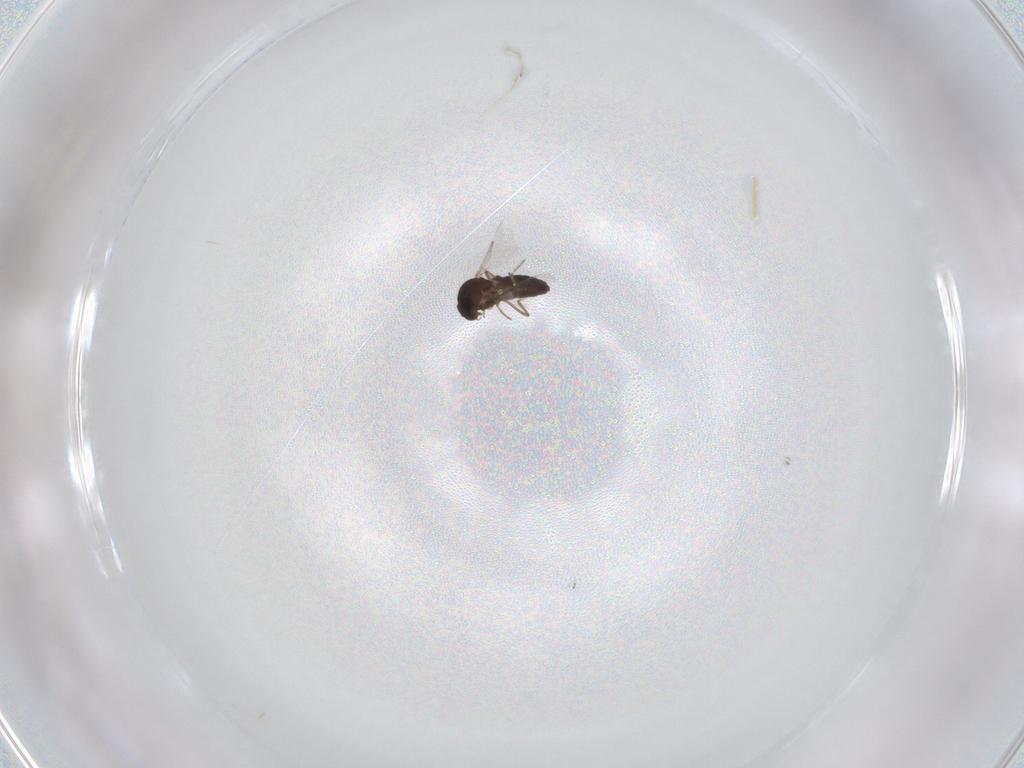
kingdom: Animalia
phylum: Arthropoda
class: Insecta
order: Diptera
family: Ceratopogonidae
